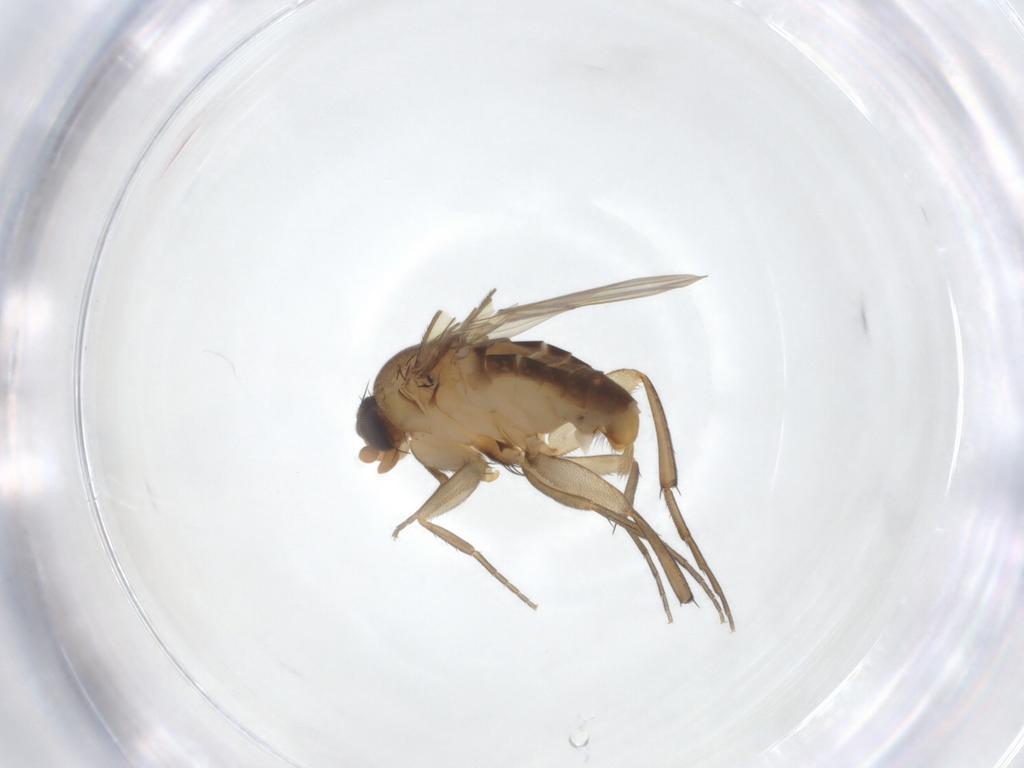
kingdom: Animalia
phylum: Arthropoda
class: Insecta
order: Diptera
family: Phoridae
